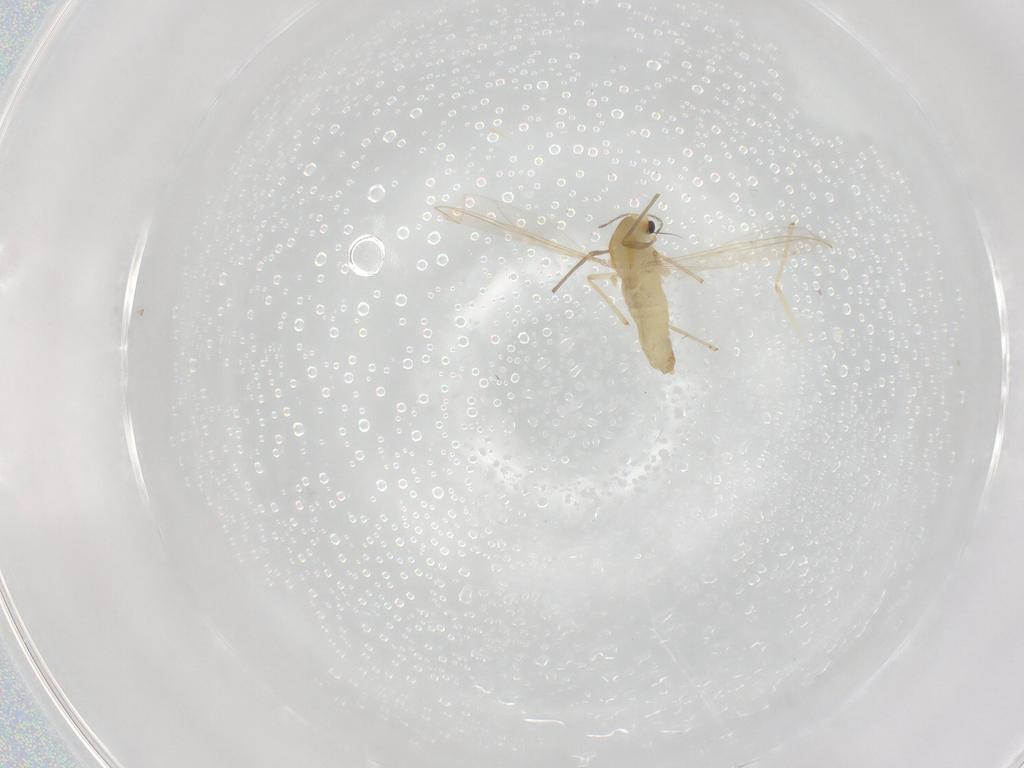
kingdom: Animalia
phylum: Arthropoda
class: Insecta
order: Diptera
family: Chironomidae
